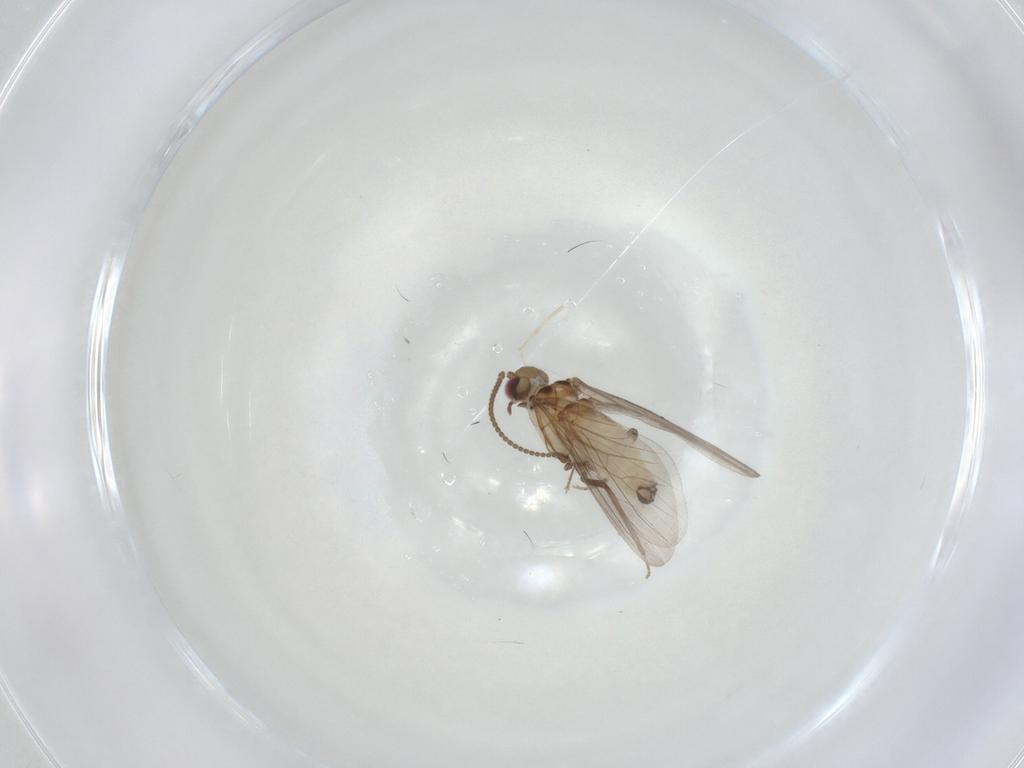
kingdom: Animalia
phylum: Arthropoda
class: Insecta
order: Neuroptera
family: Coniopterygidae
